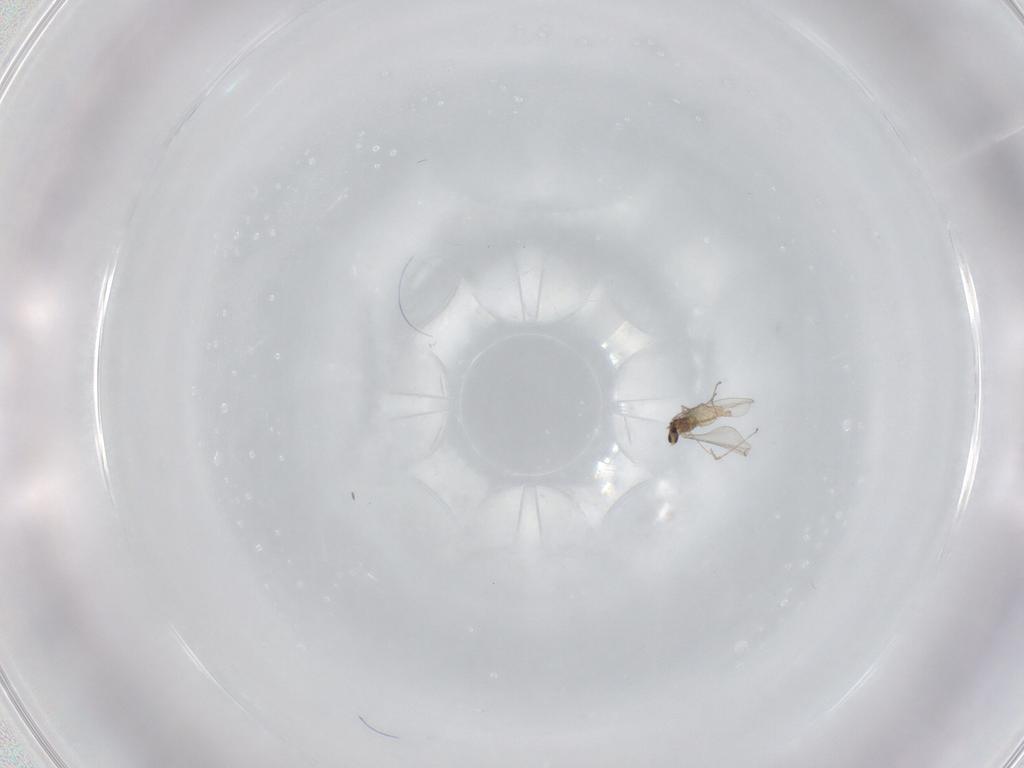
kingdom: Animalia
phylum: Arthropoda
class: Insecta
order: Diptera
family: Cecidomyiidae
